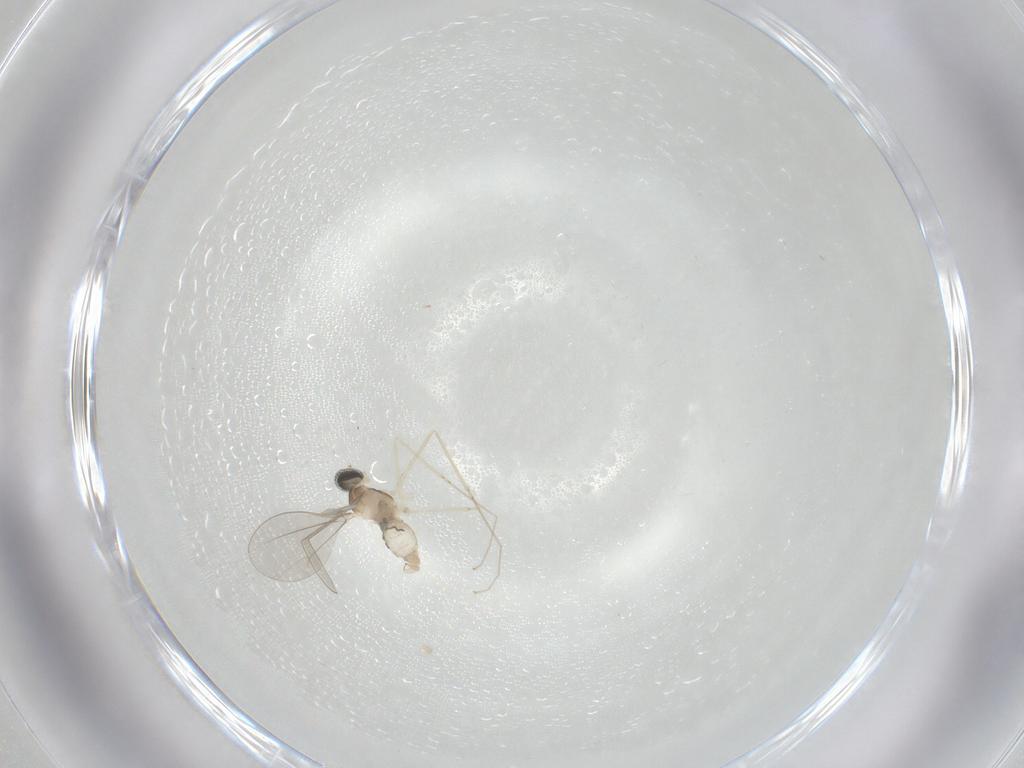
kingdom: Animalia
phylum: Arthropoda
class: Insecta
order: Diptera
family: Cecidomyiidae
